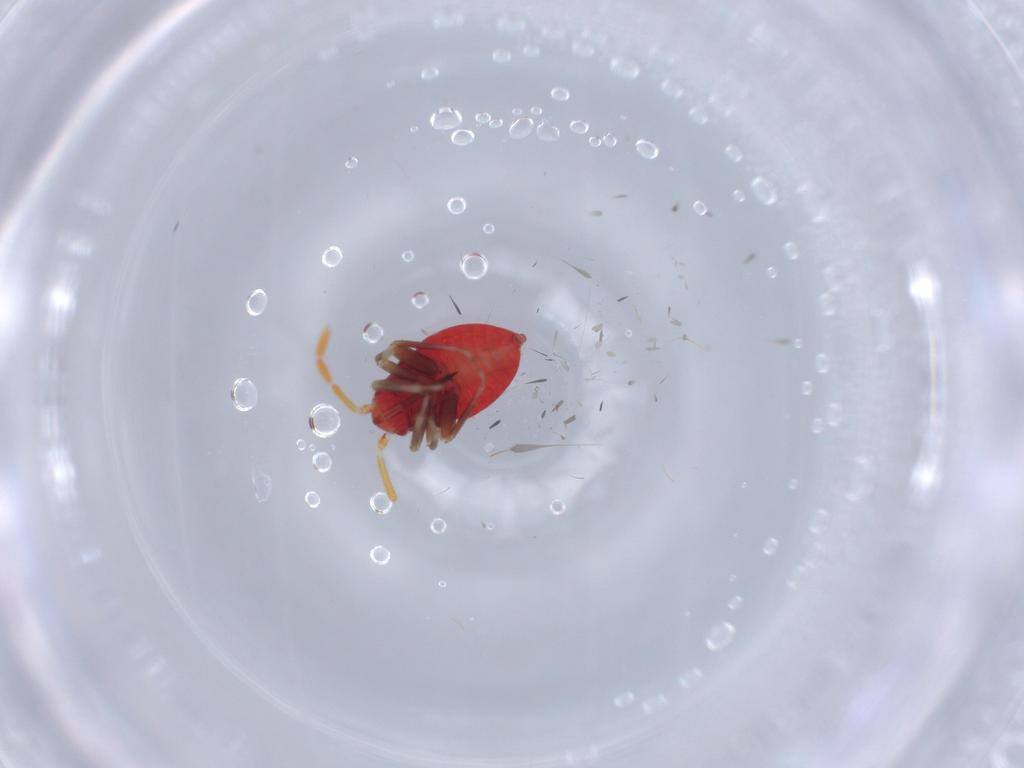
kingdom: Animalia
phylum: Arthropoda
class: Insecta
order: Hemiptera
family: Miridae
